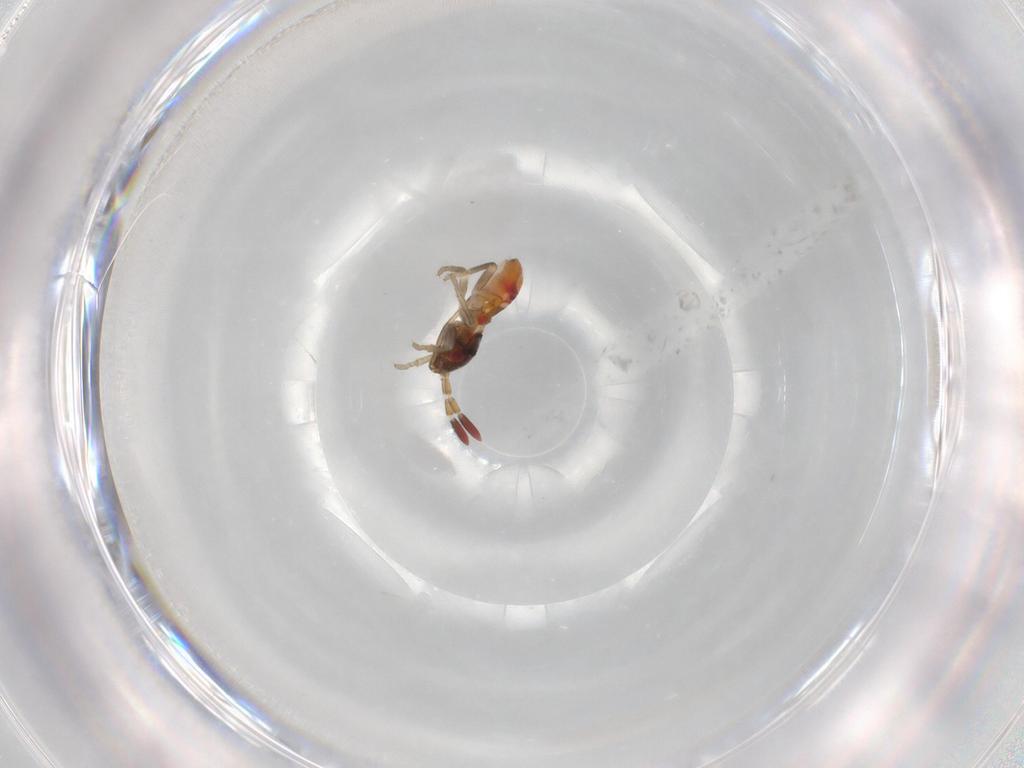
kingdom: Animalia
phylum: Arthropoda
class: Insecta
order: Hemiptera
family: Rhyparochromidae
